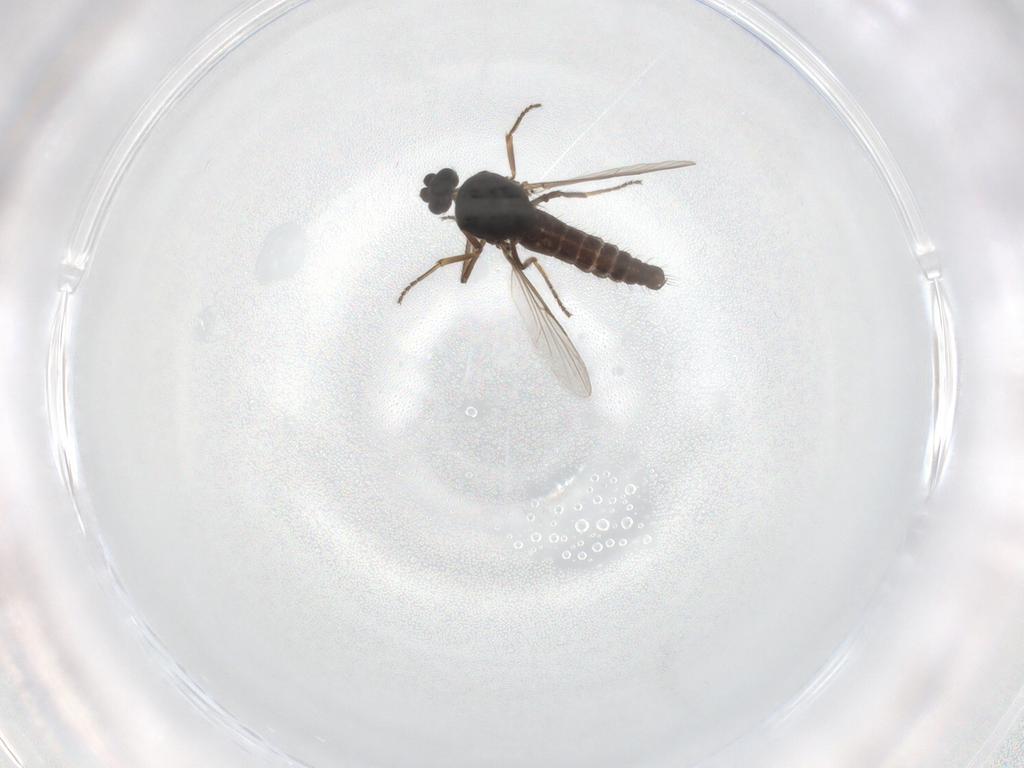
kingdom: Animalia
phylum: Arthropoda
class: Insecta
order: Diptera
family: Ceratopogonidae
